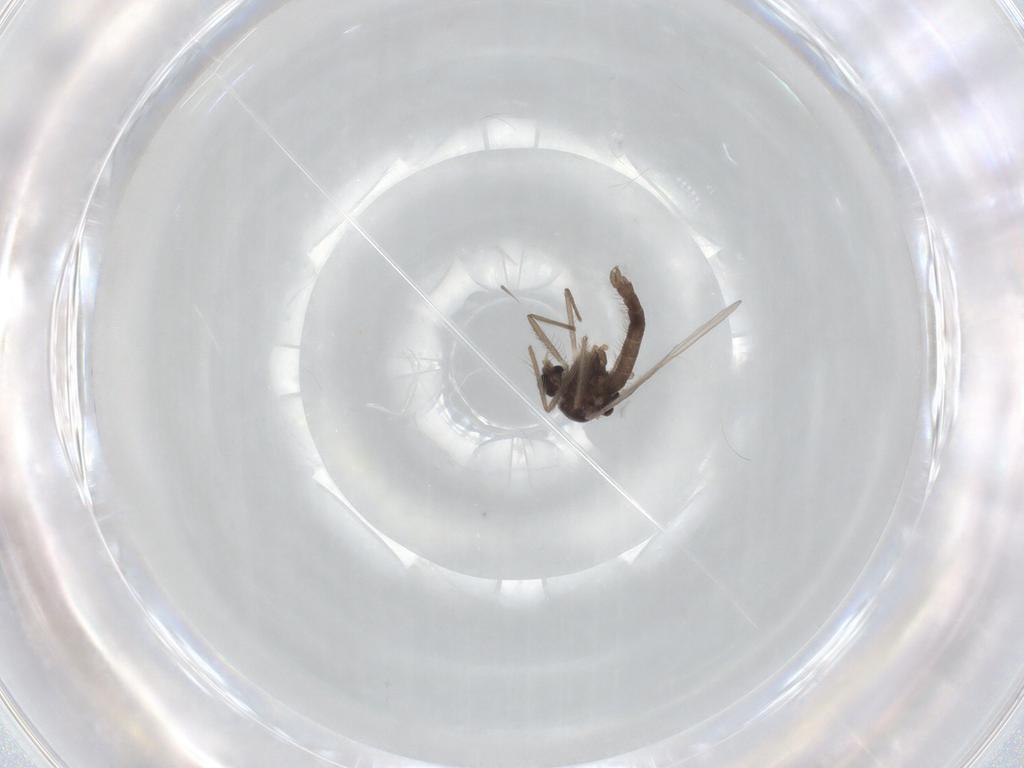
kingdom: Animalia
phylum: Arthropoda
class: Insecta
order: Diptera
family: Chironomidae
